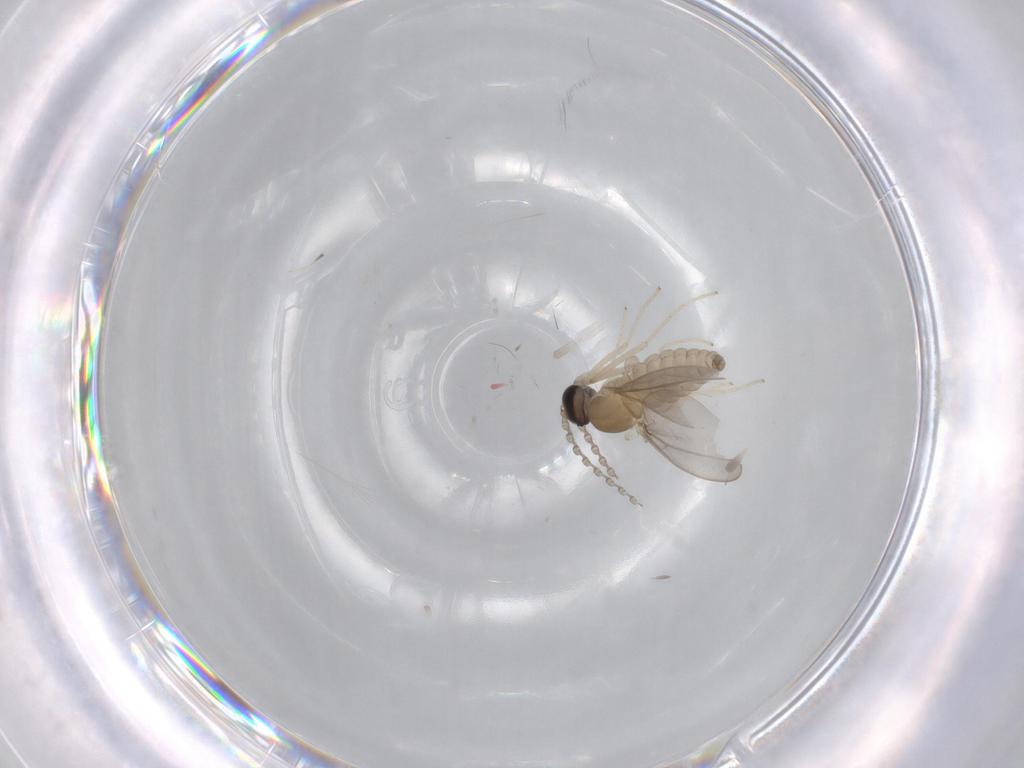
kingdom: Animalia
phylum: Arthropoda
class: Insecta
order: Diptera
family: Cecidomyiidae
